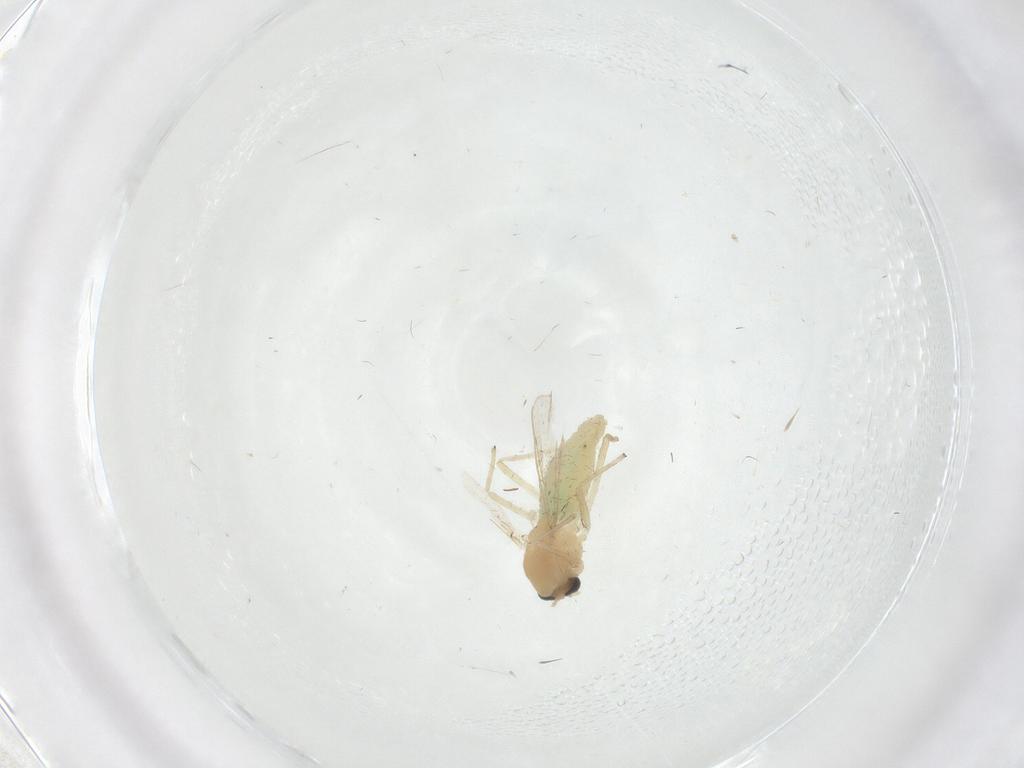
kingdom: Animalia
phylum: Arthropoda
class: Insecta
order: Diptera
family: Chironomidae
